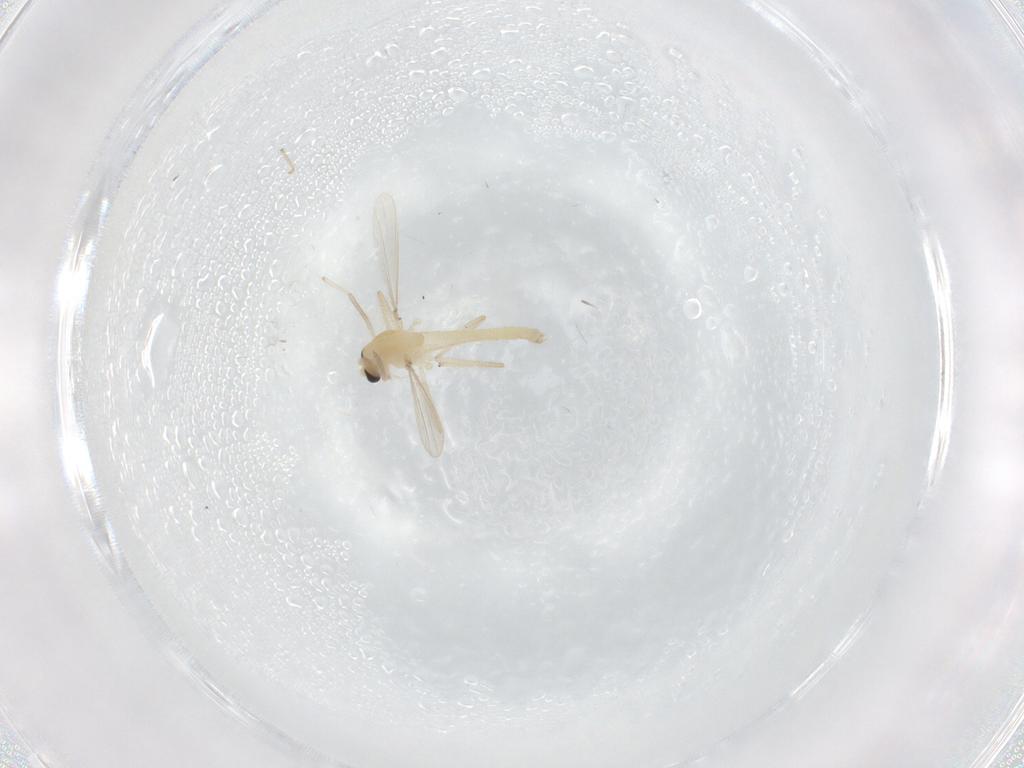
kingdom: Animalia
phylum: Arthropoda
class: Insecta
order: Diptera
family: Chironomidae
